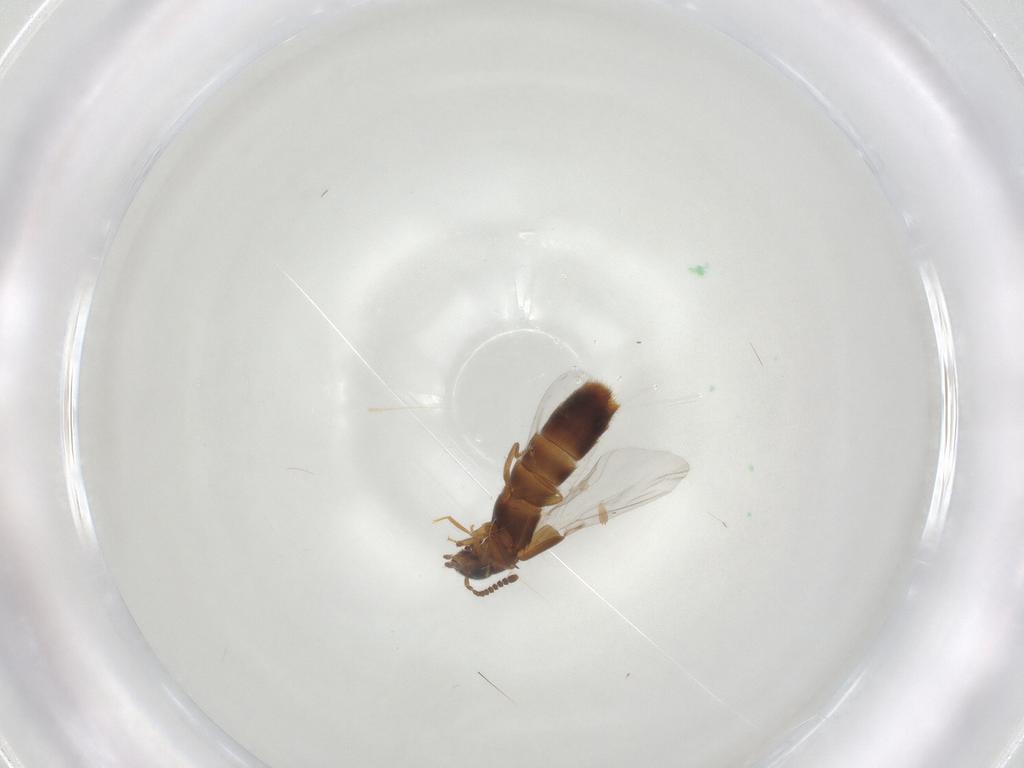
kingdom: Animalia
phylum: Arthropoda
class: Insecta
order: Coleoptera
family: Staphylinidae
